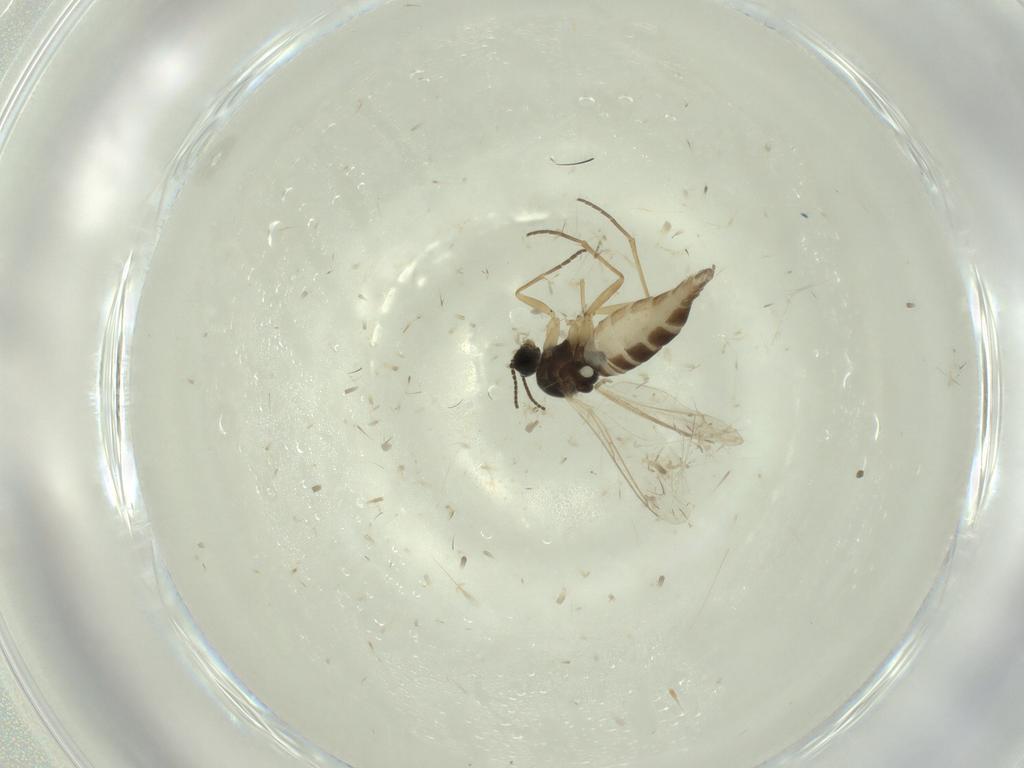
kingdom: Animalia
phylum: Arthropoda
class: Insecta
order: Diptera
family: Sciaridae
